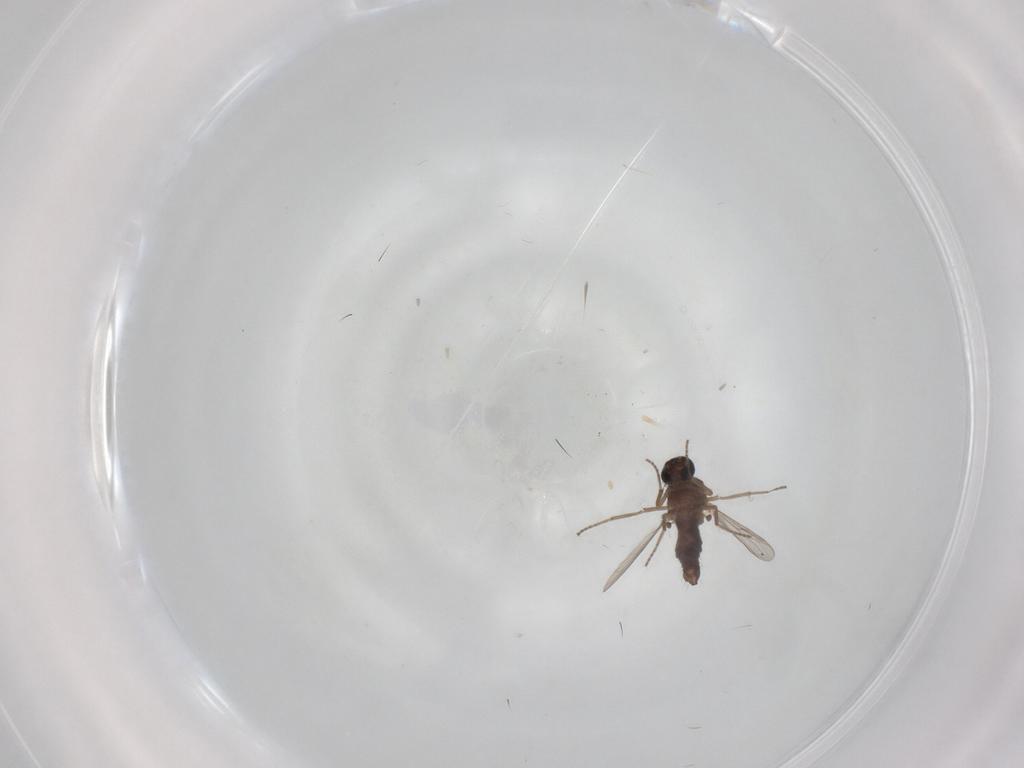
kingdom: Animalia
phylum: Arthropoda
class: Insecta
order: Diptera
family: Ceratopogonidae
